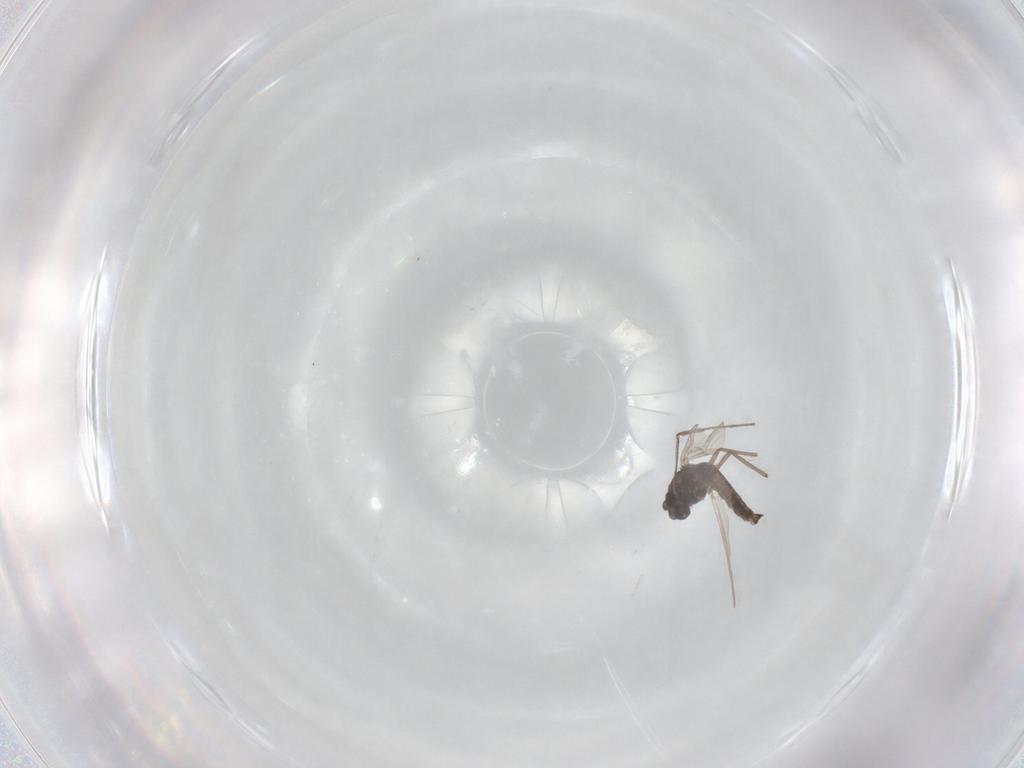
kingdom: Animalia
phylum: Arthropoda
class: Insecta
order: Diptera
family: Chironomidae
